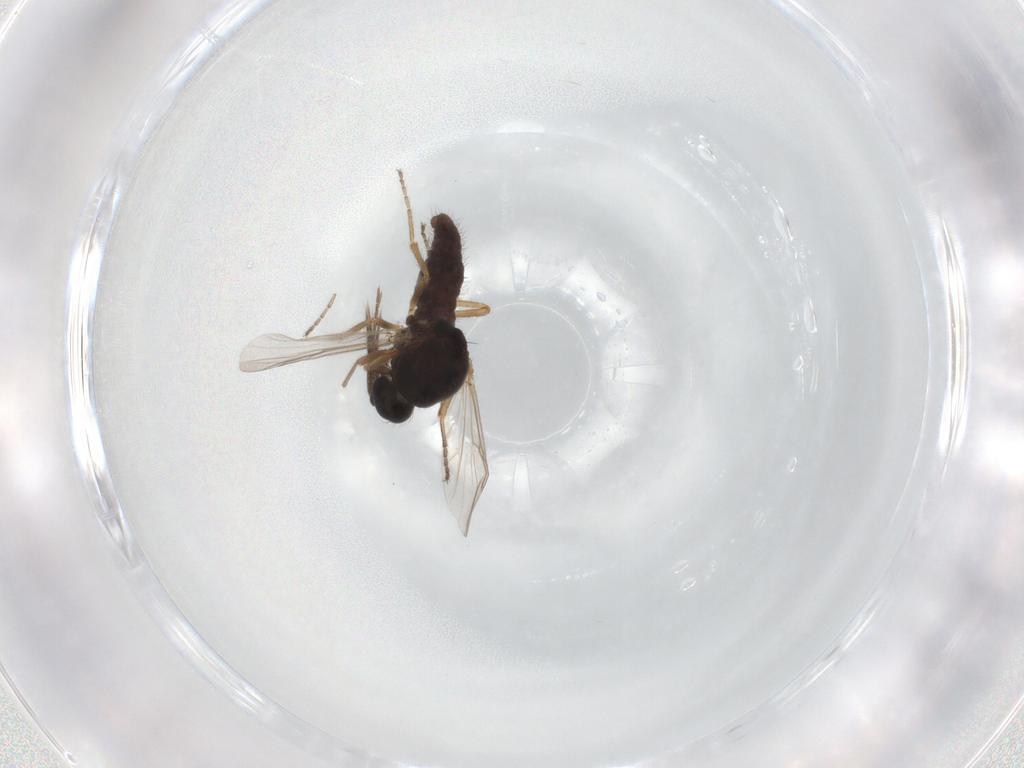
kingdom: Animalia
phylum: Arthropoda
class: Insecta
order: Diptera
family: Ceratopogonidae
